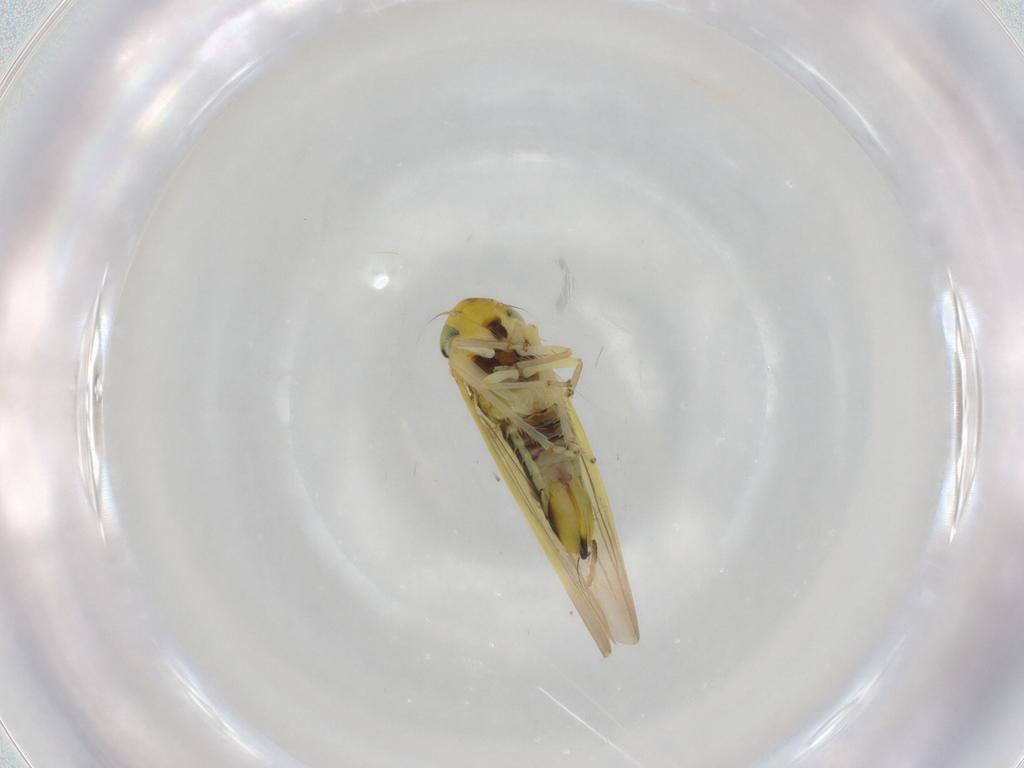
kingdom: Animalia
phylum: Arthropoda
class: Insecta
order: Hemiptera
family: Cicadellidae
